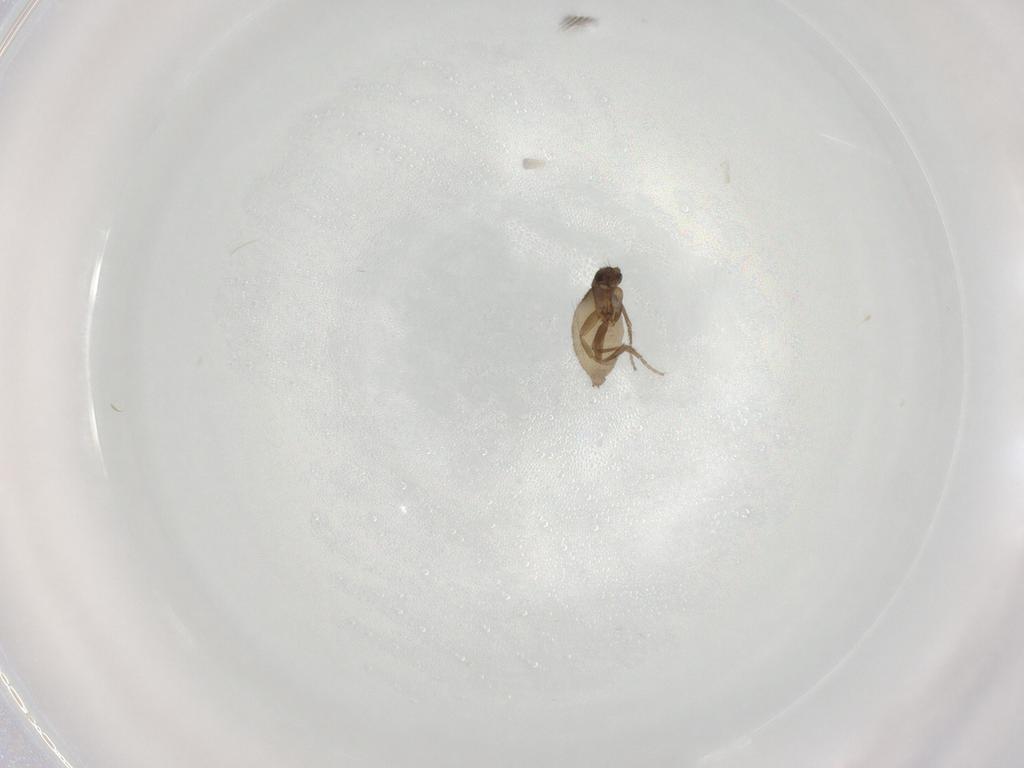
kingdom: Animalia
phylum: Arthropoda
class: Insecta
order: Diptera
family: Phoridae
